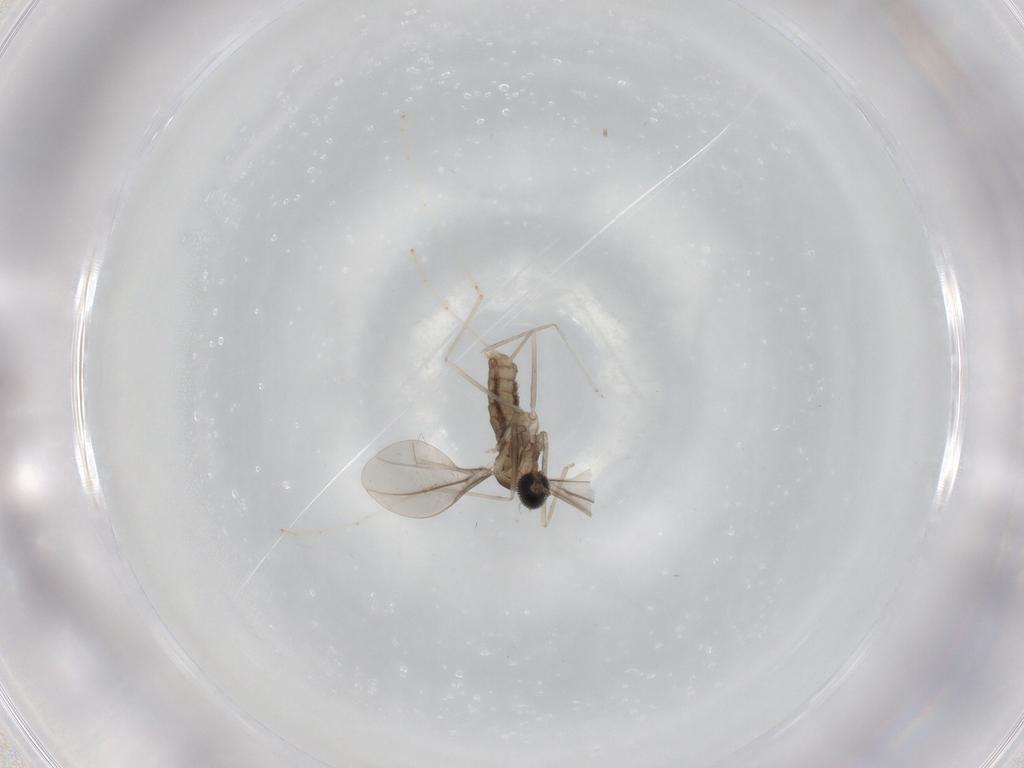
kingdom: Animalia
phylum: Arthropoda
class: Insecta
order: Diptera
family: Cecidomyiidae
